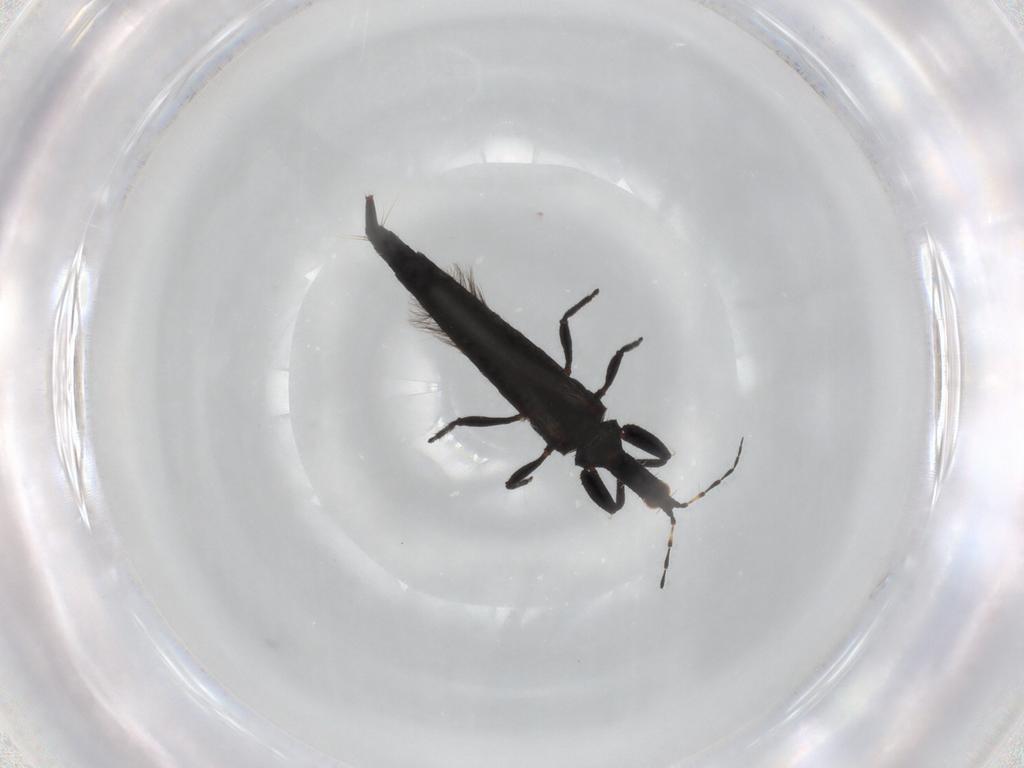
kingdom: Animalia
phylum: Arthropoda
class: Insecta
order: Thysanoptera
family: Phlaeothripidae
